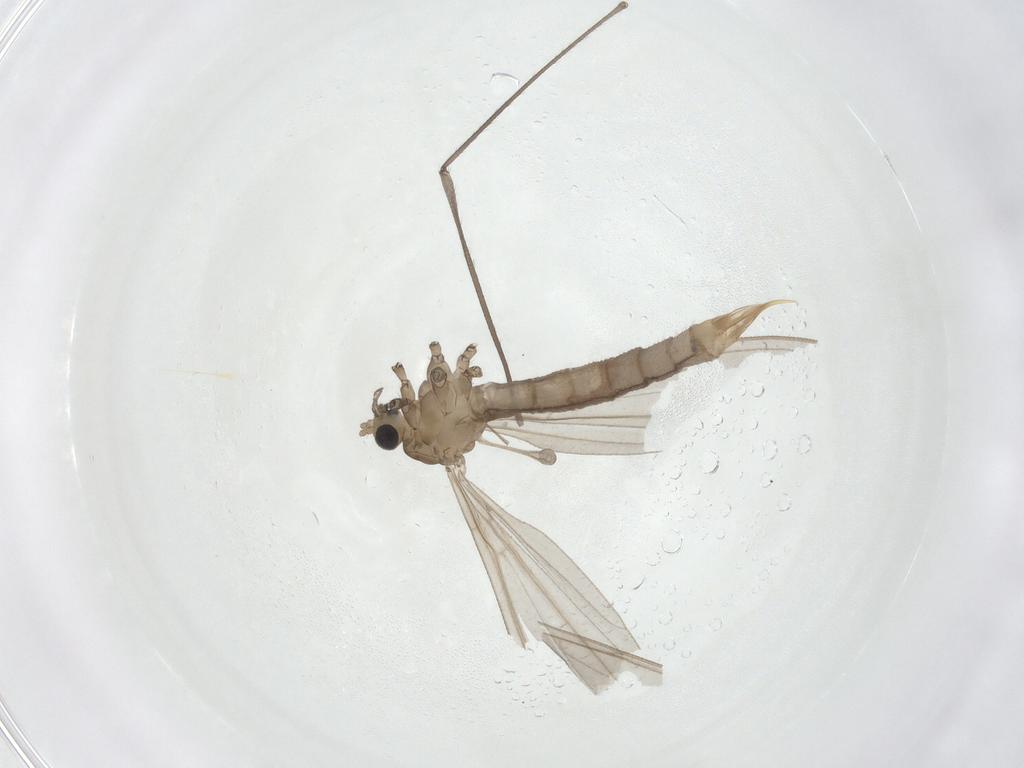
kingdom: Animalia
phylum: Arthropoda
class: Insecta
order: Diptera
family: Limoniidae
